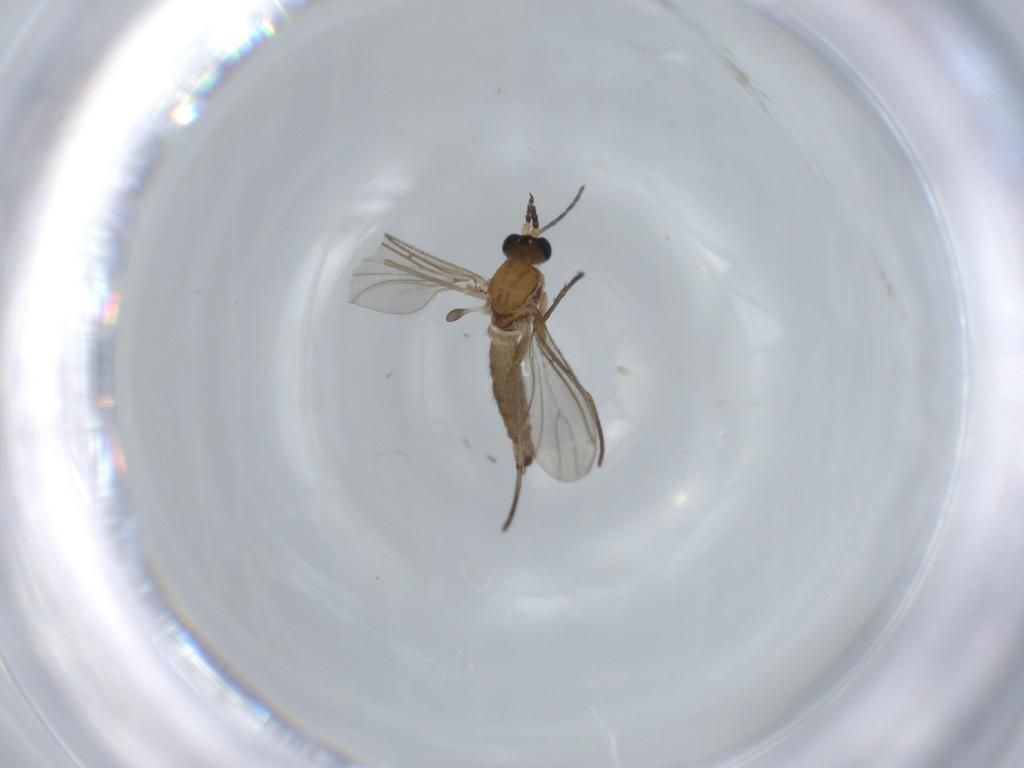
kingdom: Animalia
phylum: Arthropoda
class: Insecta
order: Diptera
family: Sciaridae
